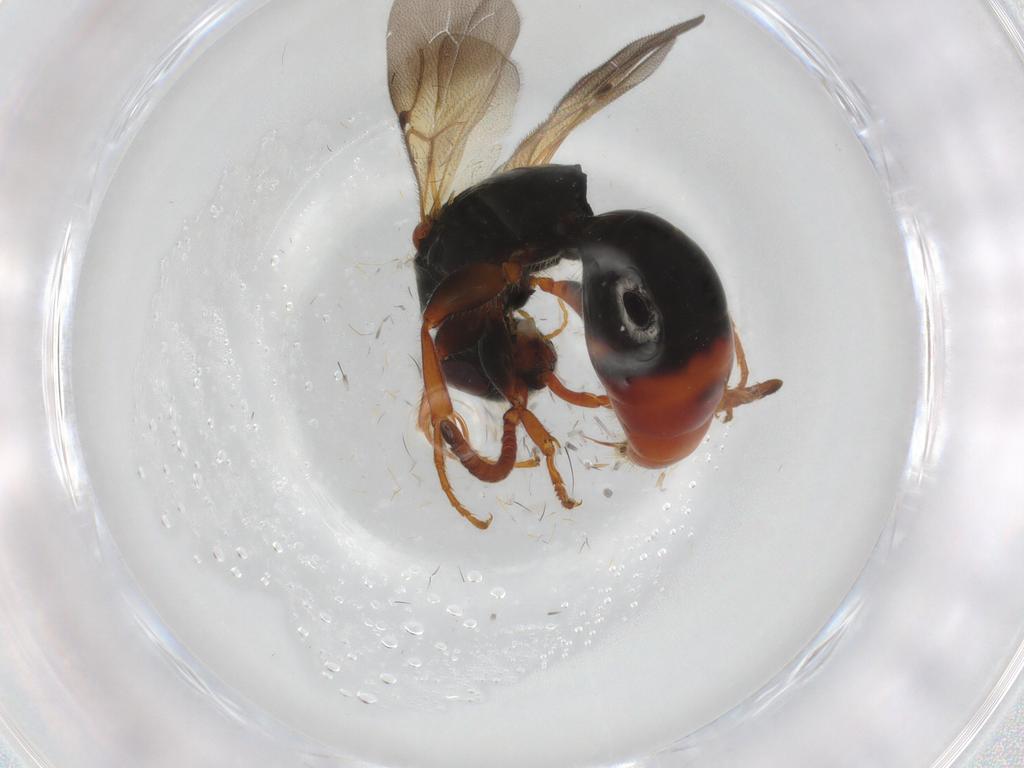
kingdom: Animalia
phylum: Arthropoda
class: Insecta
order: Hymenoptera
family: Bethylidae
